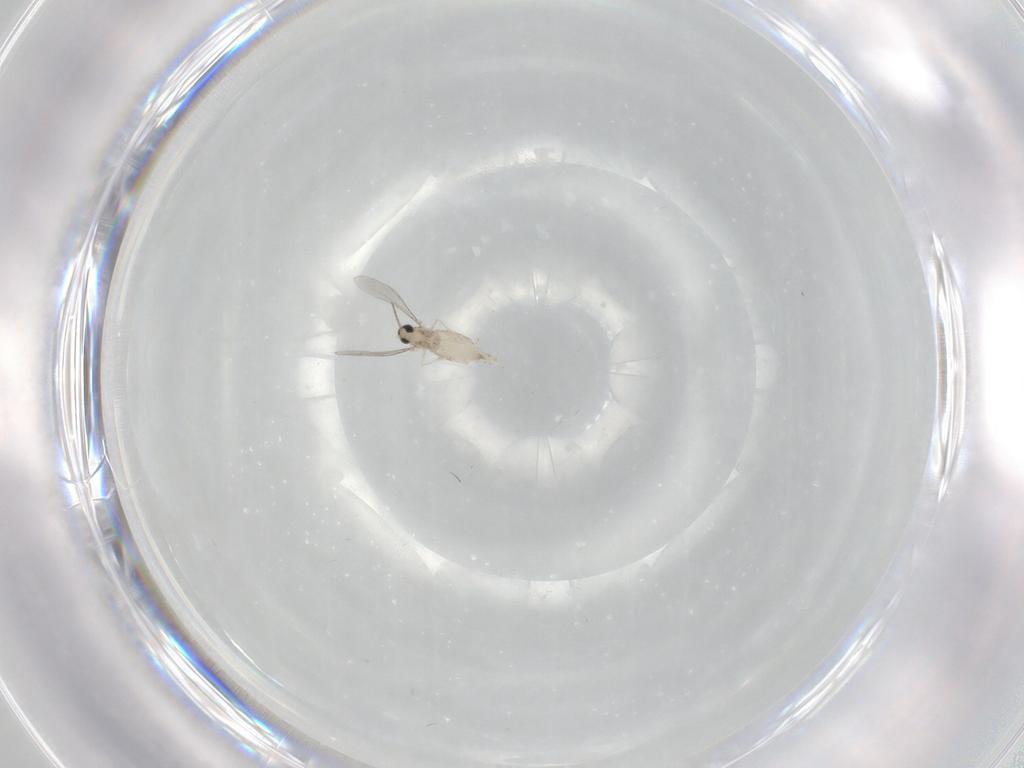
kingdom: Animalia
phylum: Arthropoda
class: Insecta
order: Diptera
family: Cecidomyiidae
